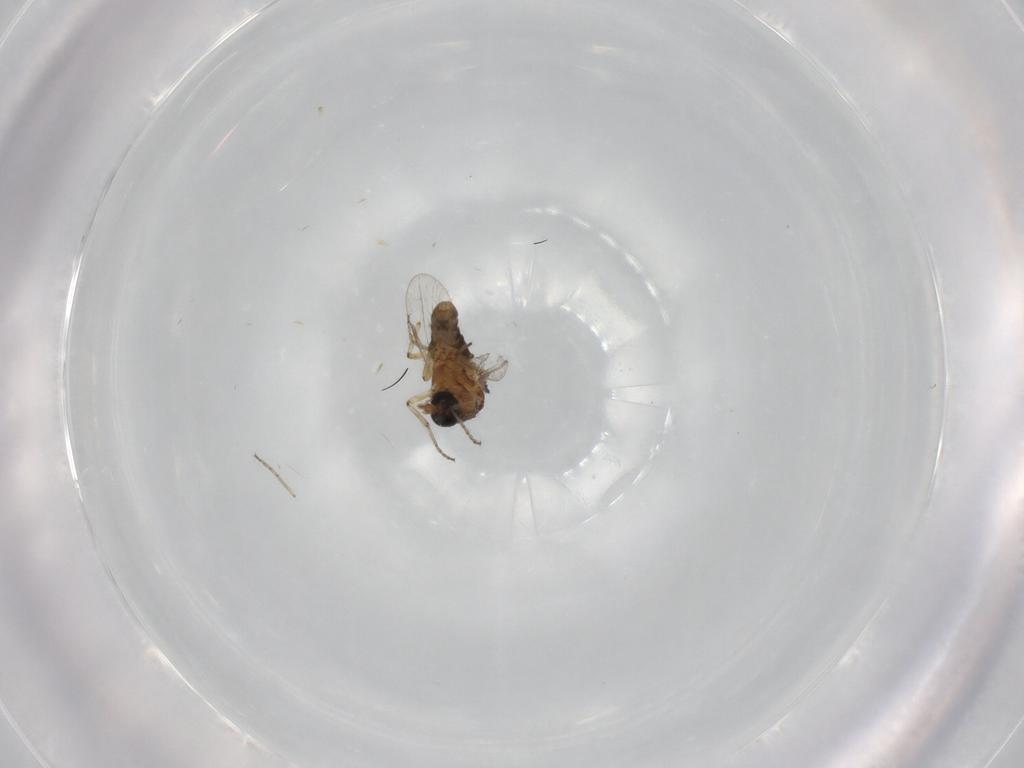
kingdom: Animalia
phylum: Arthropoda
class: Insecta
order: Diptera
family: Ceratopogonidae
